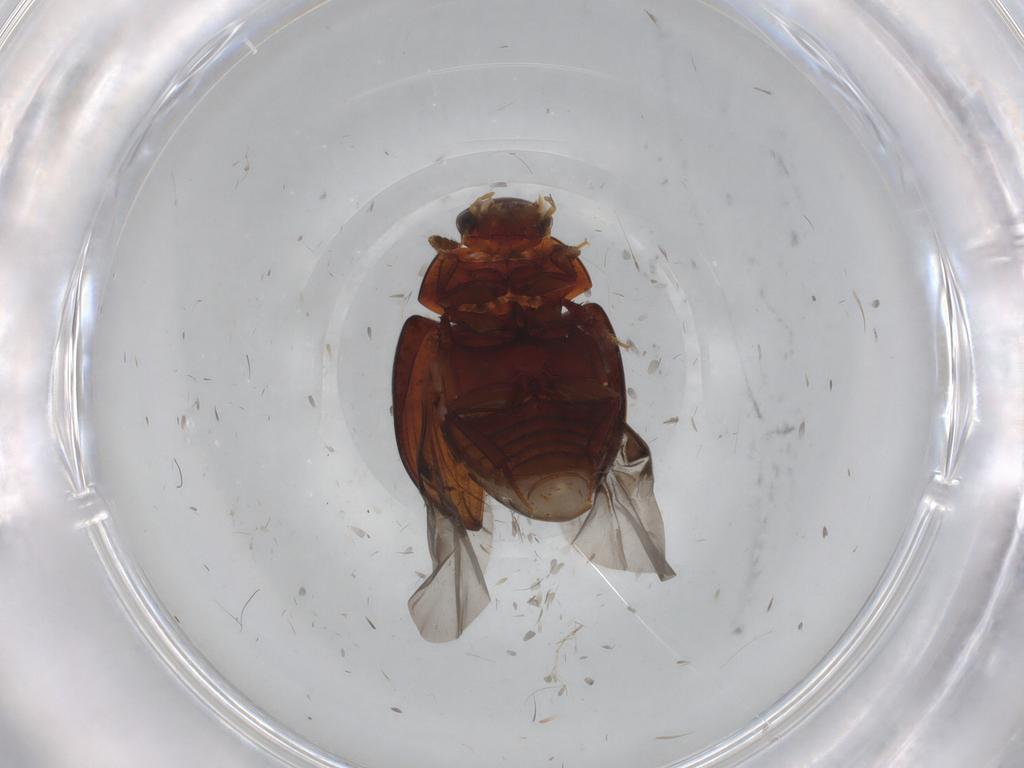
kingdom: Animalia
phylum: Arthropoda
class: Insecta
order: Coleoptera
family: Hydrophilidae
